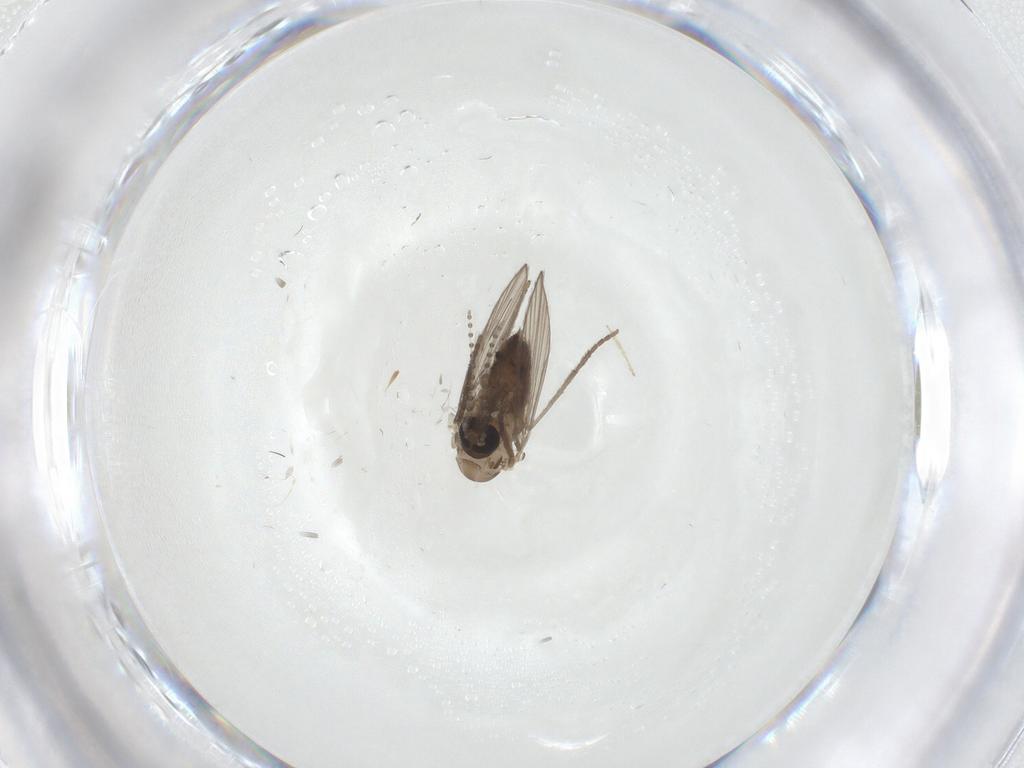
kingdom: Animalia
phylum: Arthropoda
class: Insecta
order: Diptera
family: Psychodidae
